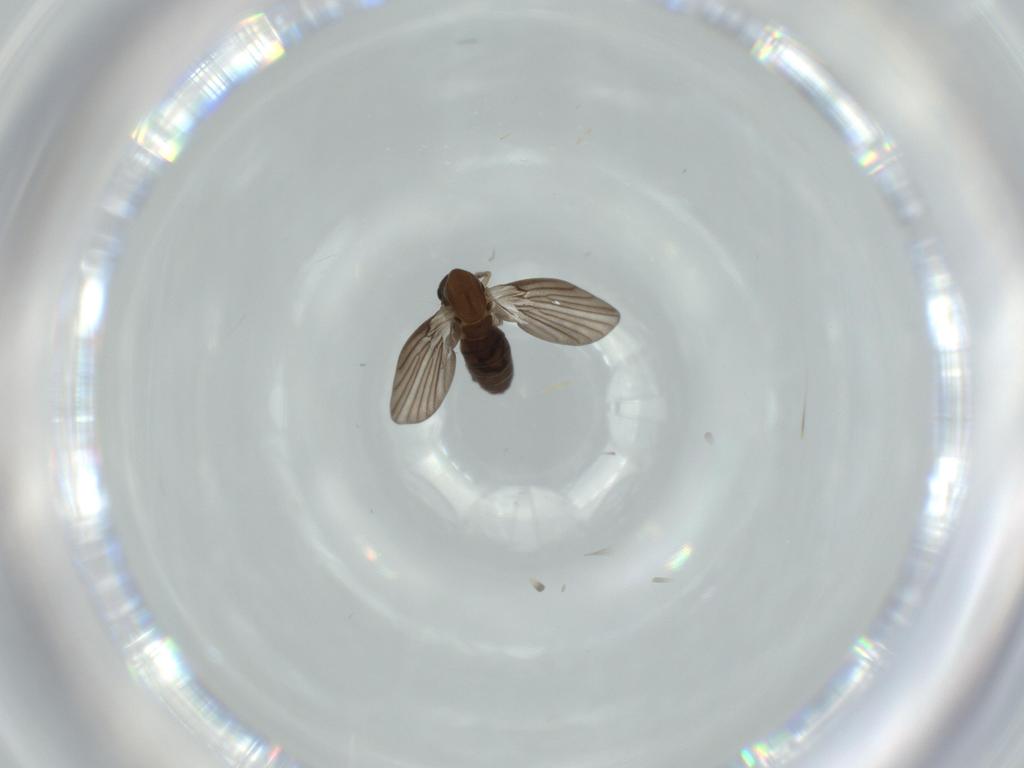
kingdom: Animalia
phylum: Arthropoda
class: Insecta
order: Diptera
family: Psychodidae
